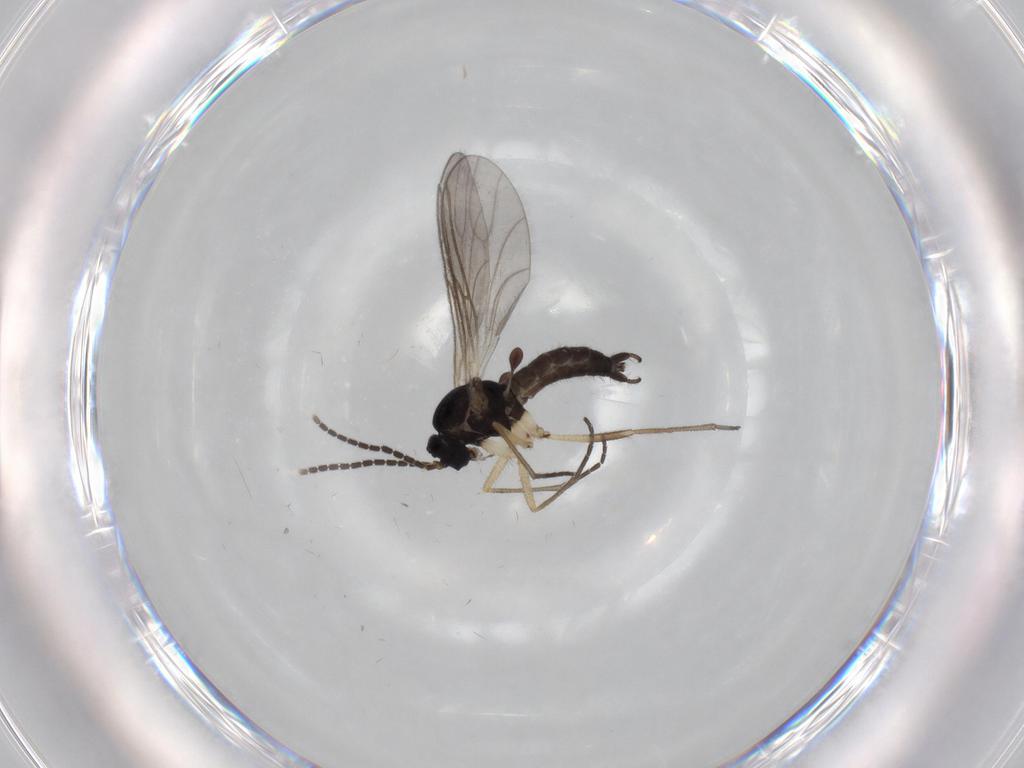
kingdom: Animalia
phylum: Arthropoda
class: Insecta
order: Diptera
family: Sciaridae
